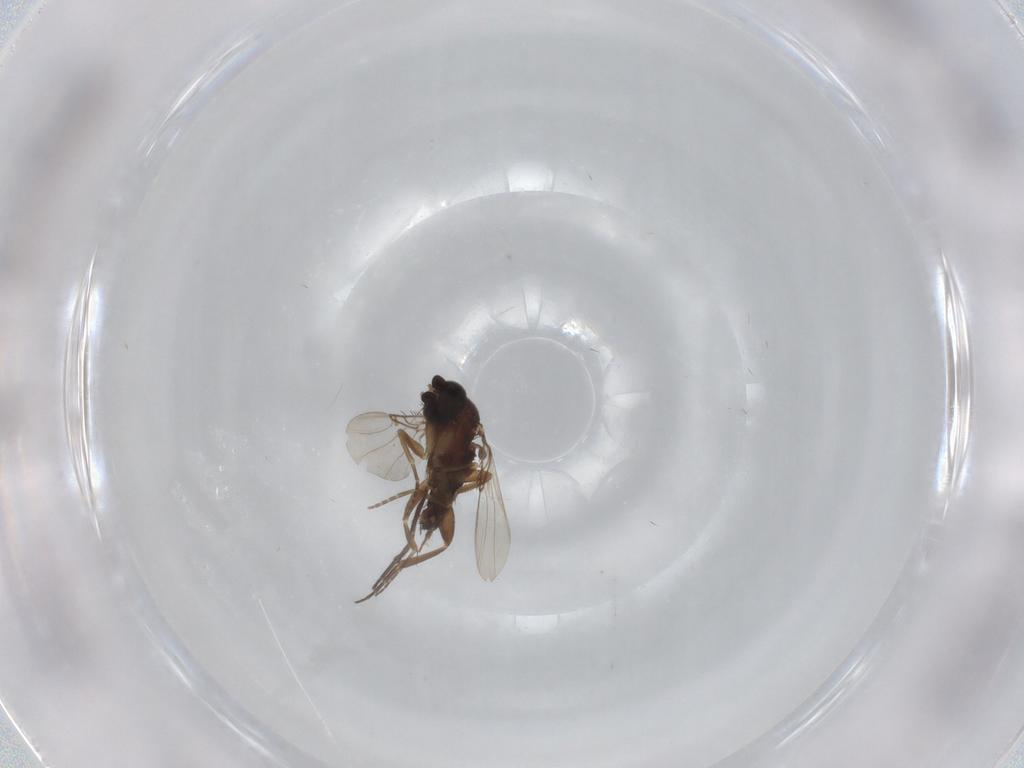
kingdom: Animalia
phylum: Arthropoda
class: Insecta
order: Diptera
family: Phoridae
